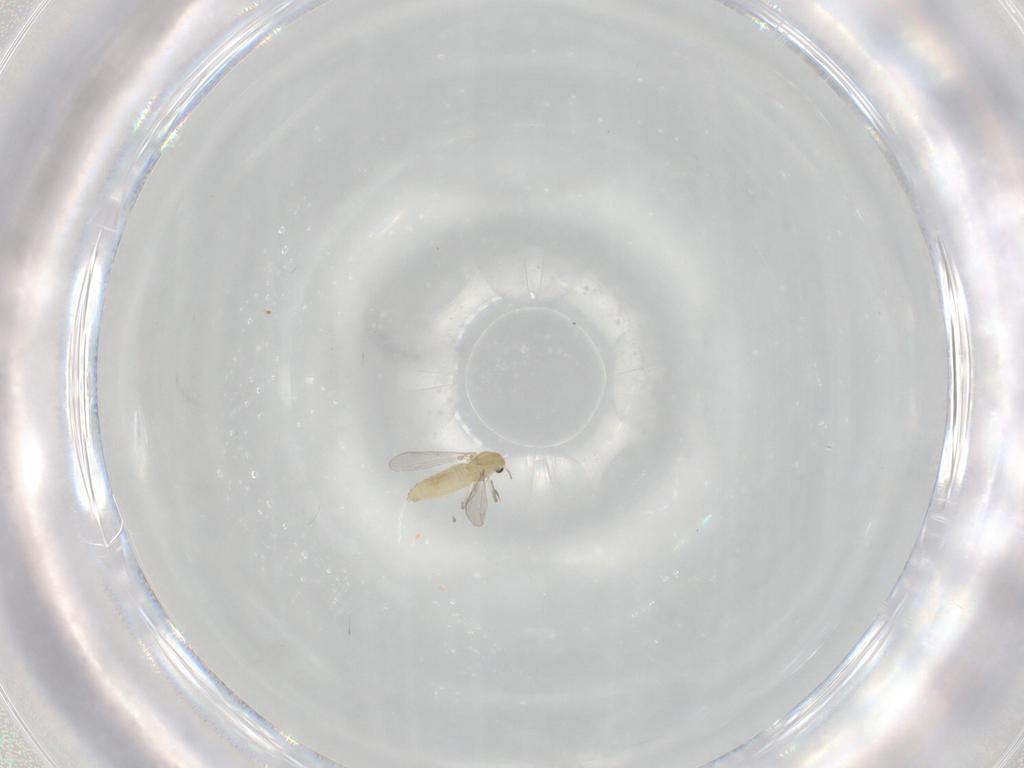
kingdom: Animalia
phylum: Arthropoda
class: Insecta
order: Diptera
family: Chironomidae
